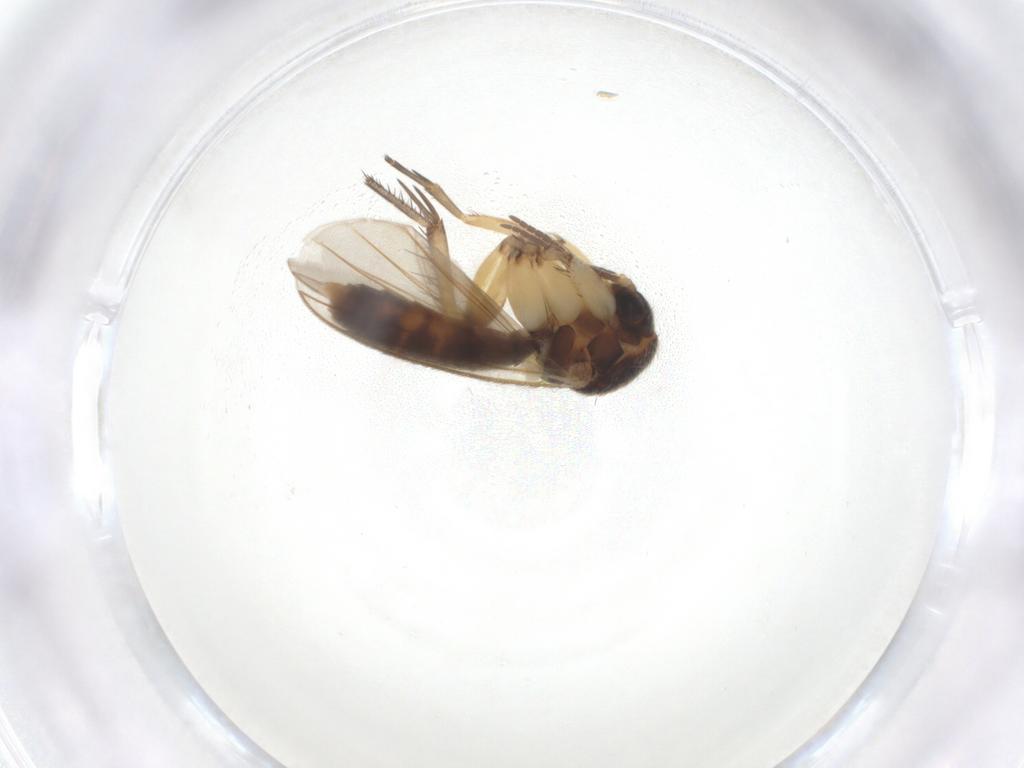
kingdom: Animalia
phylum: Arthropoda
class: Insecta
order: Diptera
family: Mycetophilidae
